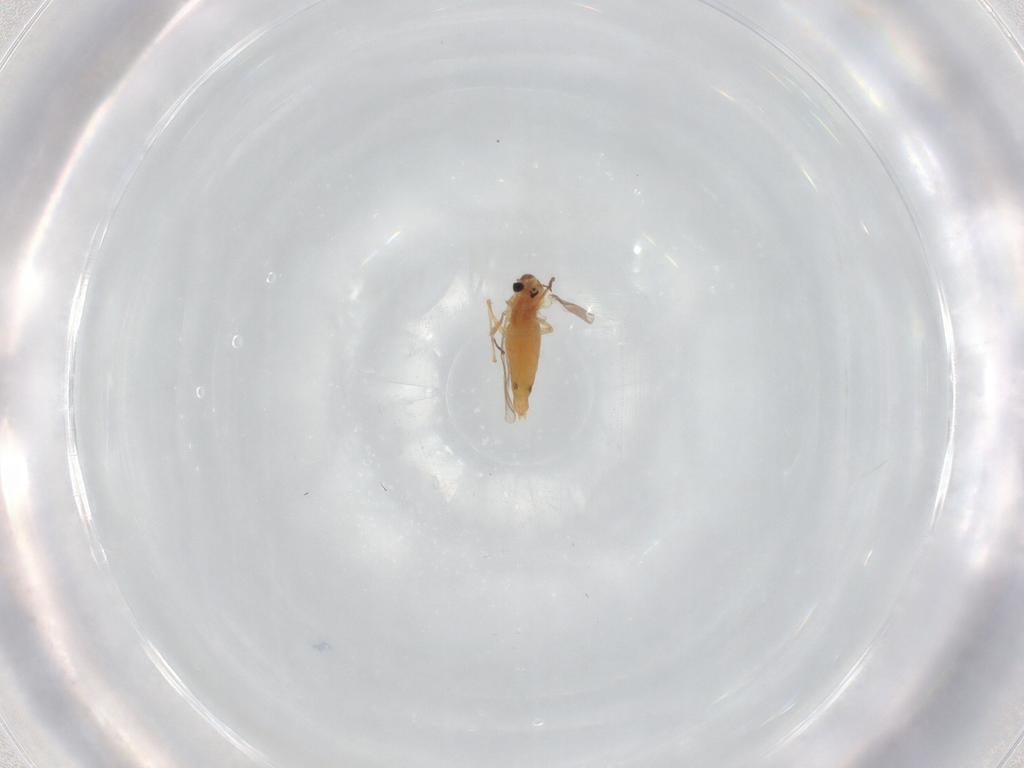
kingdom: Animalia
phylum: Arthropoda
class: Insecta
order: Diptera
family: Chironomidae
